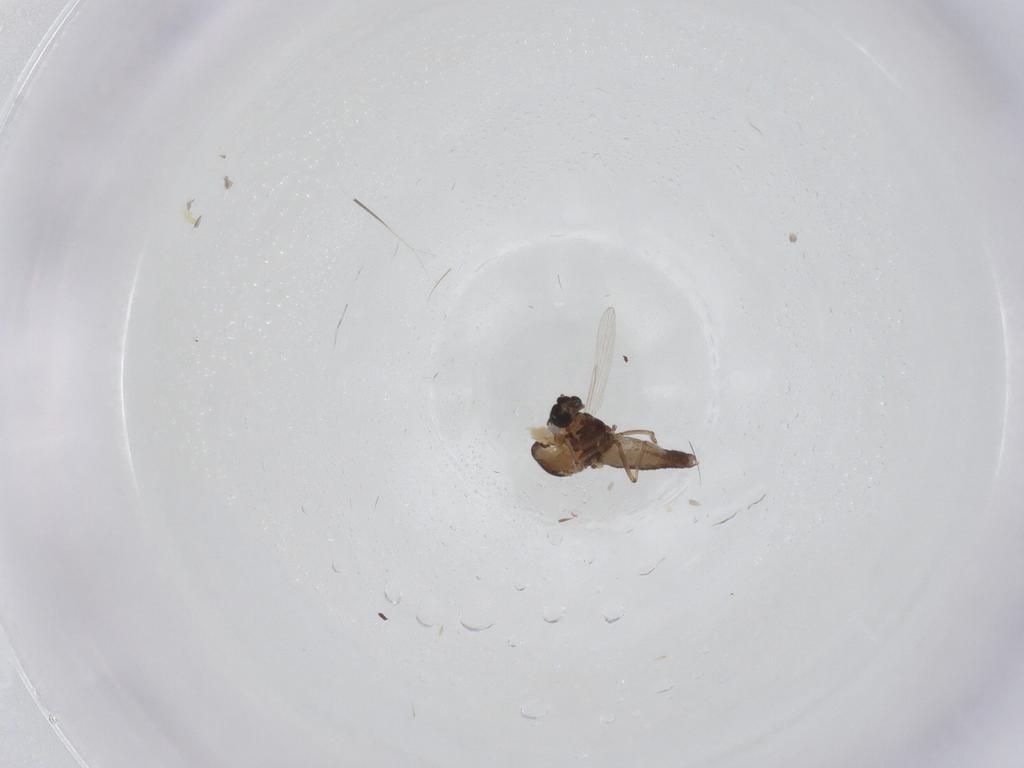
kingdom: Animalia
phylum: Arthropoda
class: Insecta
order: Diptera
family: Ceratopogonidae
